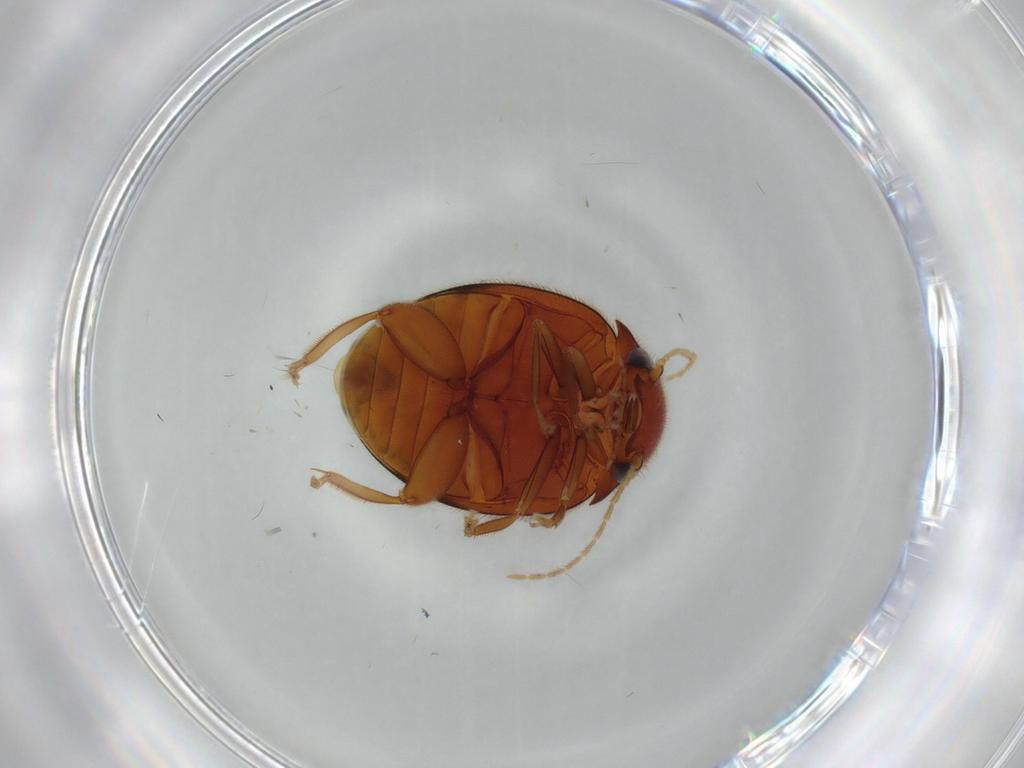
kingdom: Animalia
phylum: Arthropoda
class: Insecta
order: Coleoptera
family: Scirtidae
